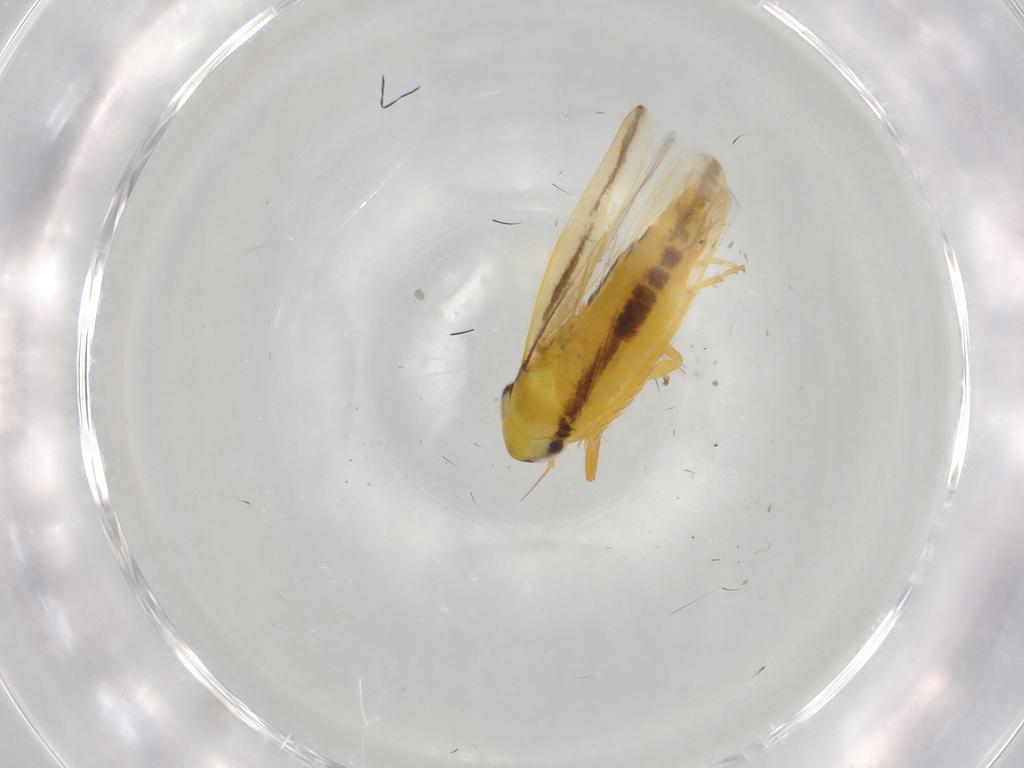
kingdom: Animalia
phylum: Arthropoda
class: Insecta
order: Hemiptera
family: Cicadellidae
